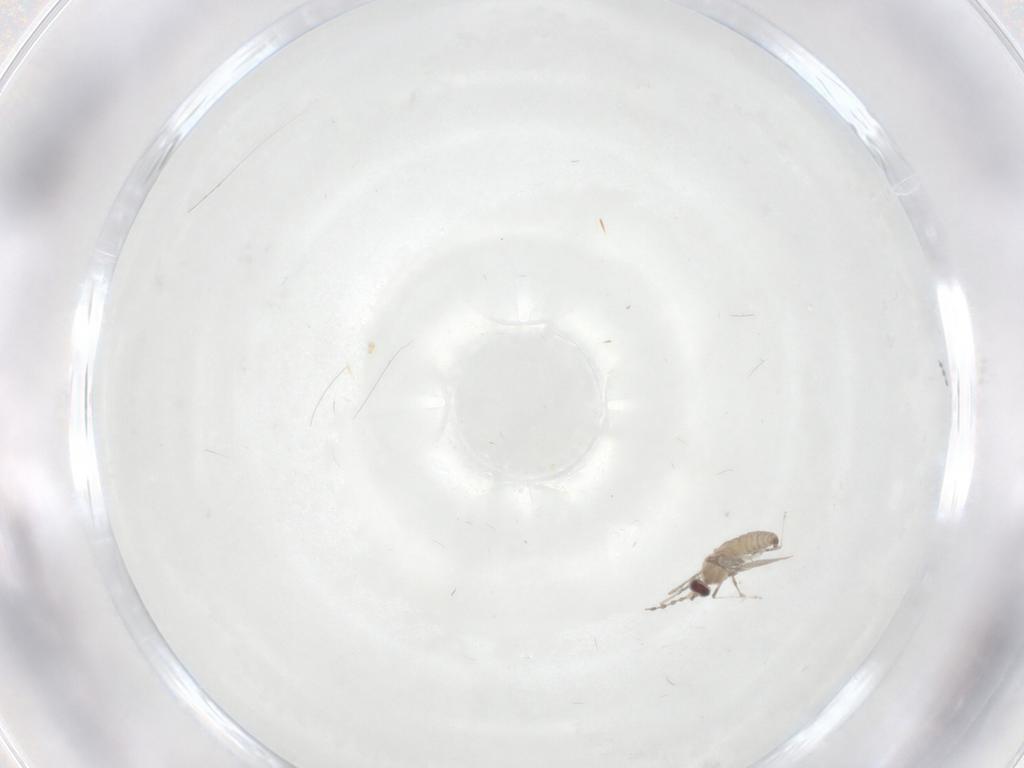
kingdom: Animalia
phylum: Arthropoda
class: Insecta
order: Diptera
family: Cecidomyiidae
